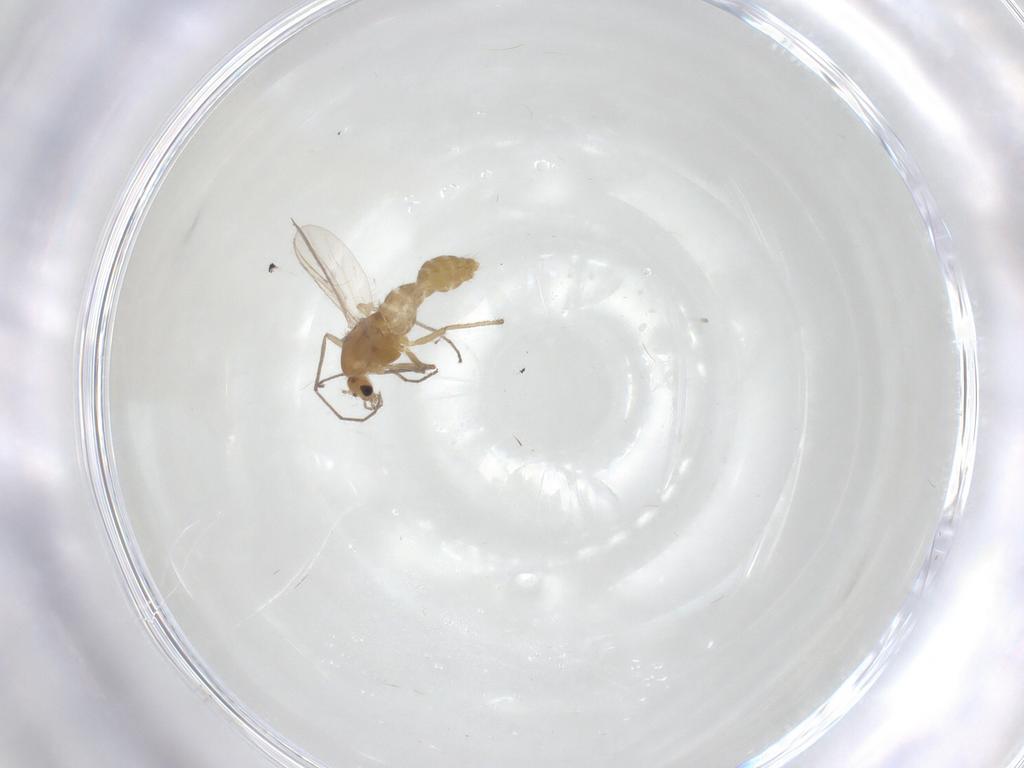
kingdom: Animalia
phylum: Arthropoda
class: Insecta
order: Diptera
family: Chironomidae
